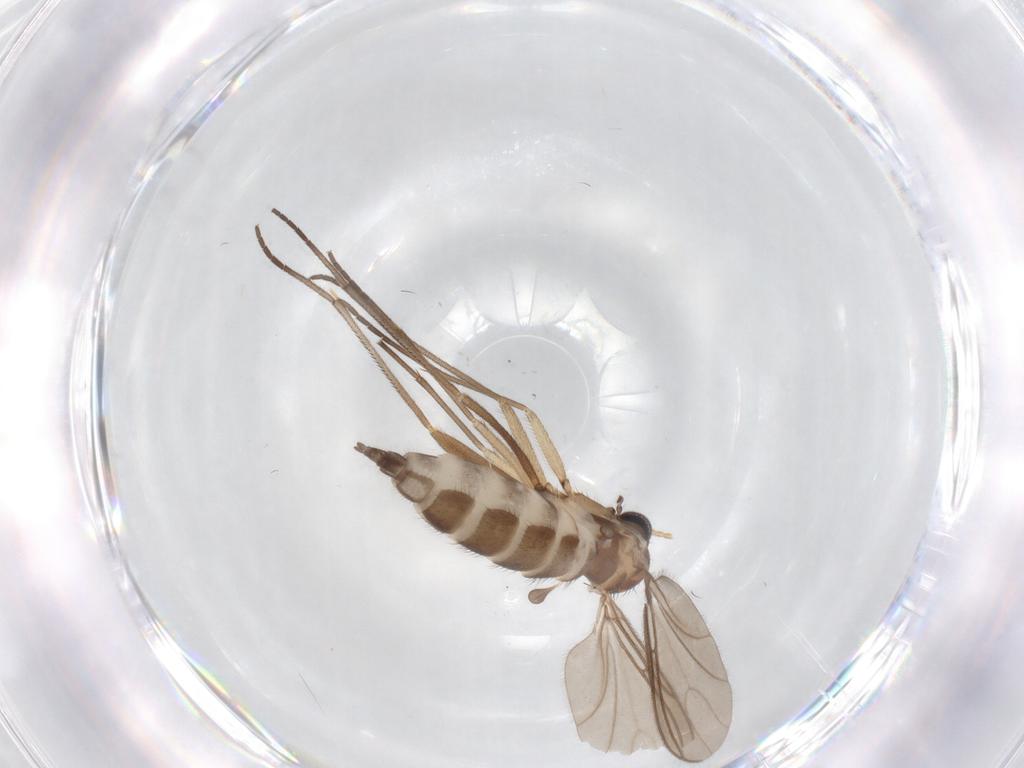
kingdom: Animalia
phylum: Arthropoda
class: Insecta
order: Diptera
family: Sciaridae
